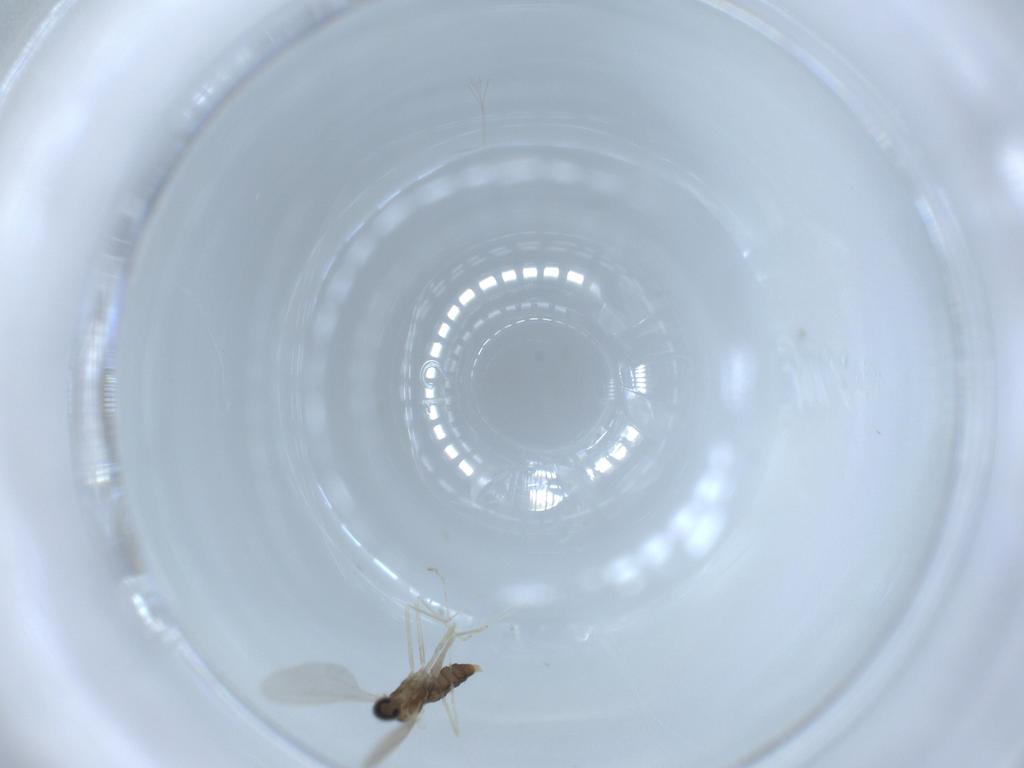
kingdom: Animalia
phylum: Arthropoda
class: Insecta
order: Diptera
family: Cecidomyiidae
